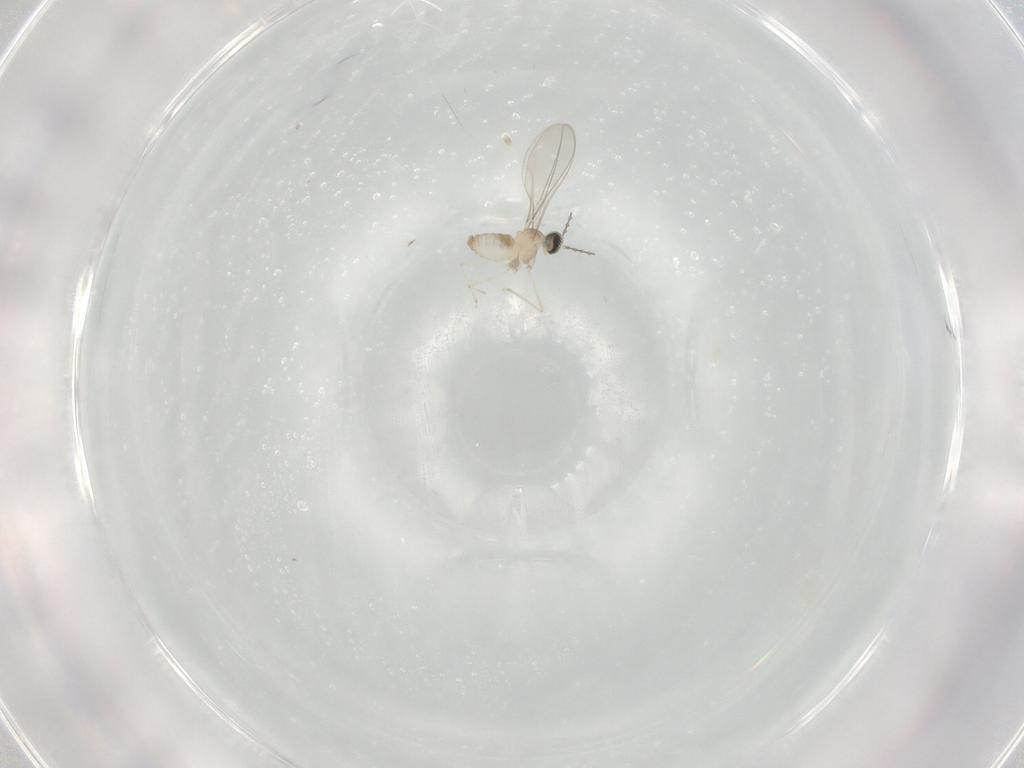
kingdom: Animalia
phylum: Arthropoda
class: Insecta
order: Diptera
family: Cecidomyiidae
